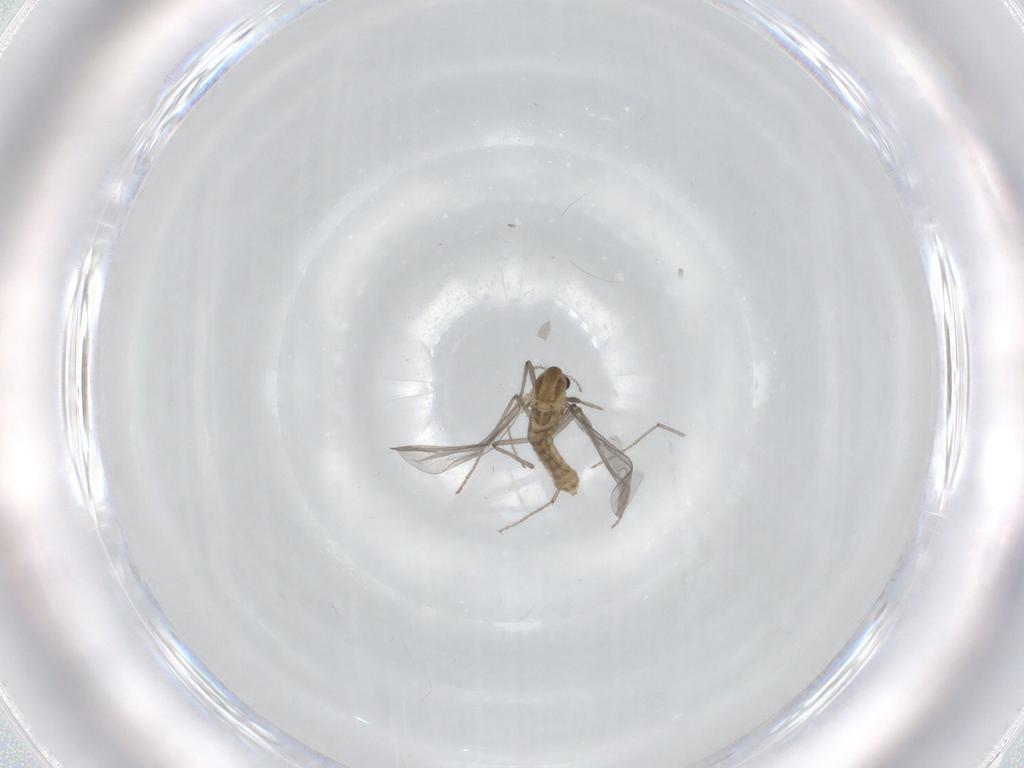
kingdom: Animalia
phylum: Arthropoda
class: Insecta
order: Diptera
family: Chironomidae
